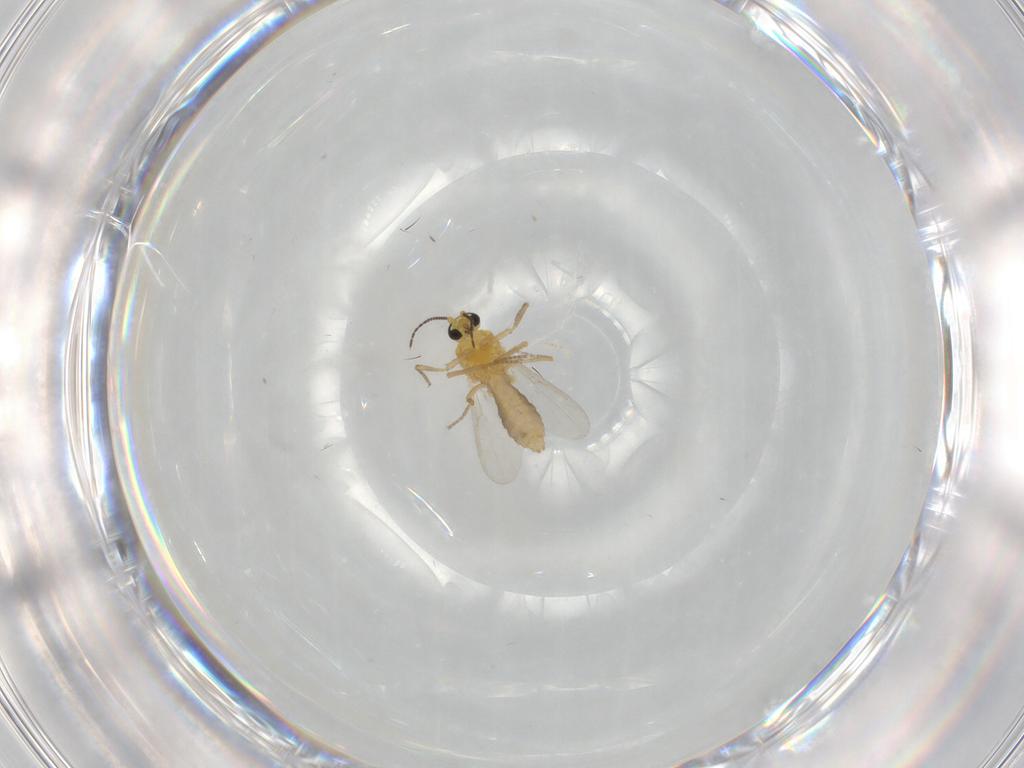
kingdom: Animalia
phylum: Arthropoda
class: Insecta
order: Diptera
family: Ceratopogonidae
